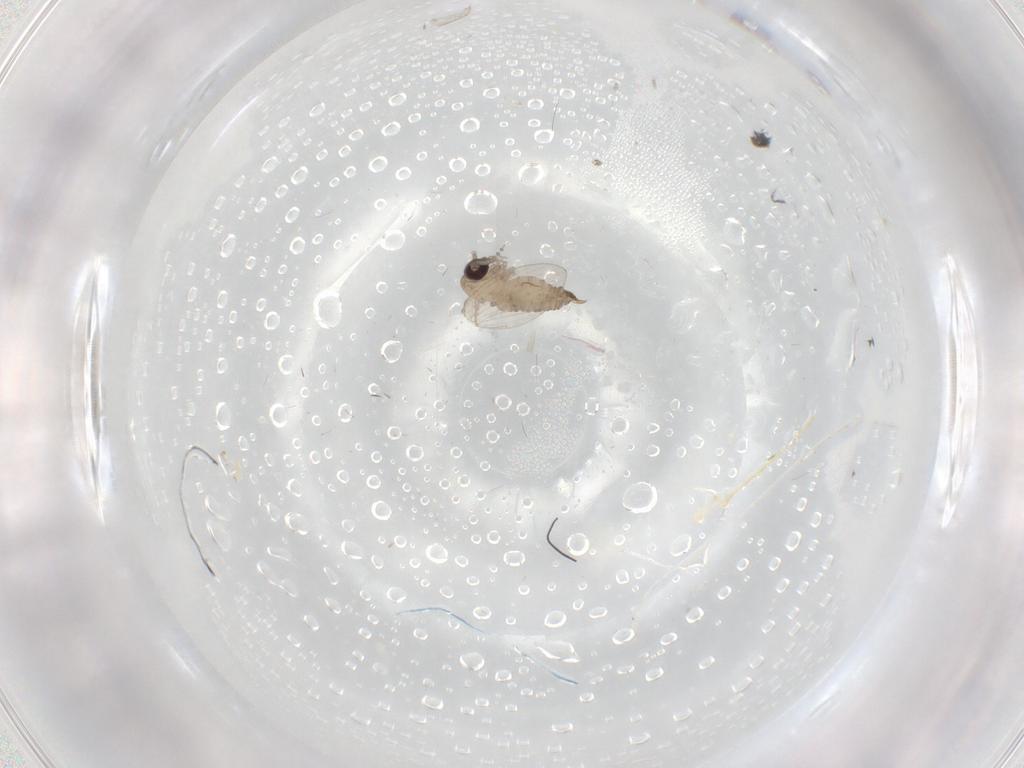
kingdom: Animalia
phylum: Arthropoda
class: Insecta
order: Diptera
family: Psychodidae
